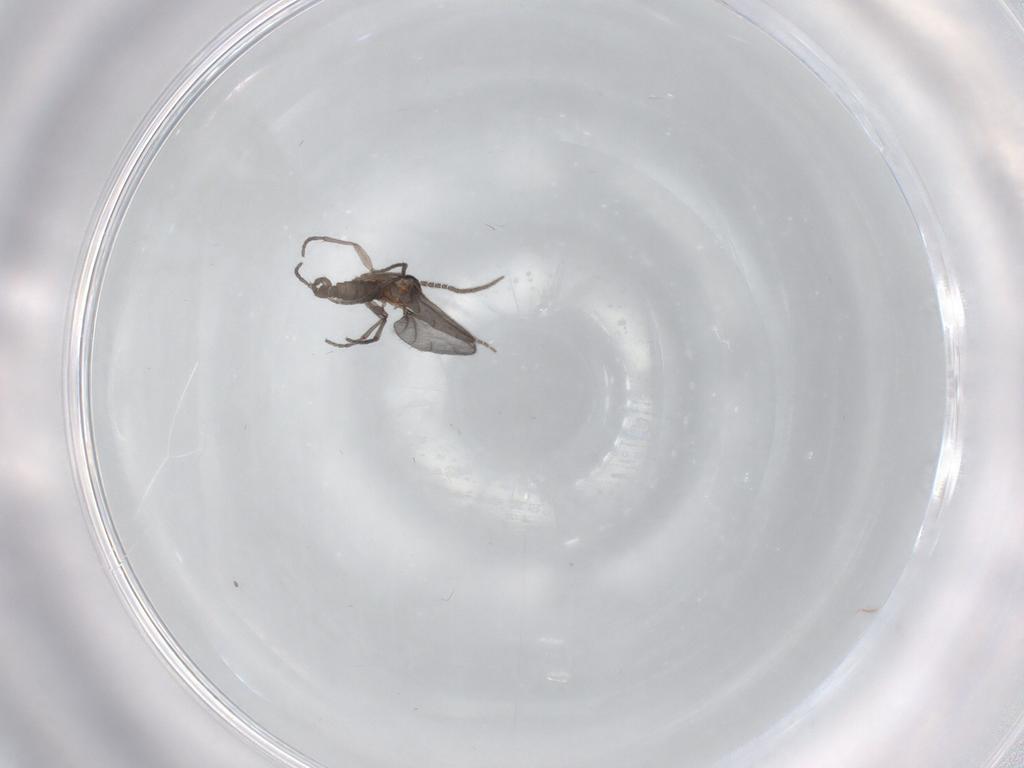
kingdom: Animalia
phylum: Arthropoda
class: Insecta
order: Diptera
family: Sciaridae
